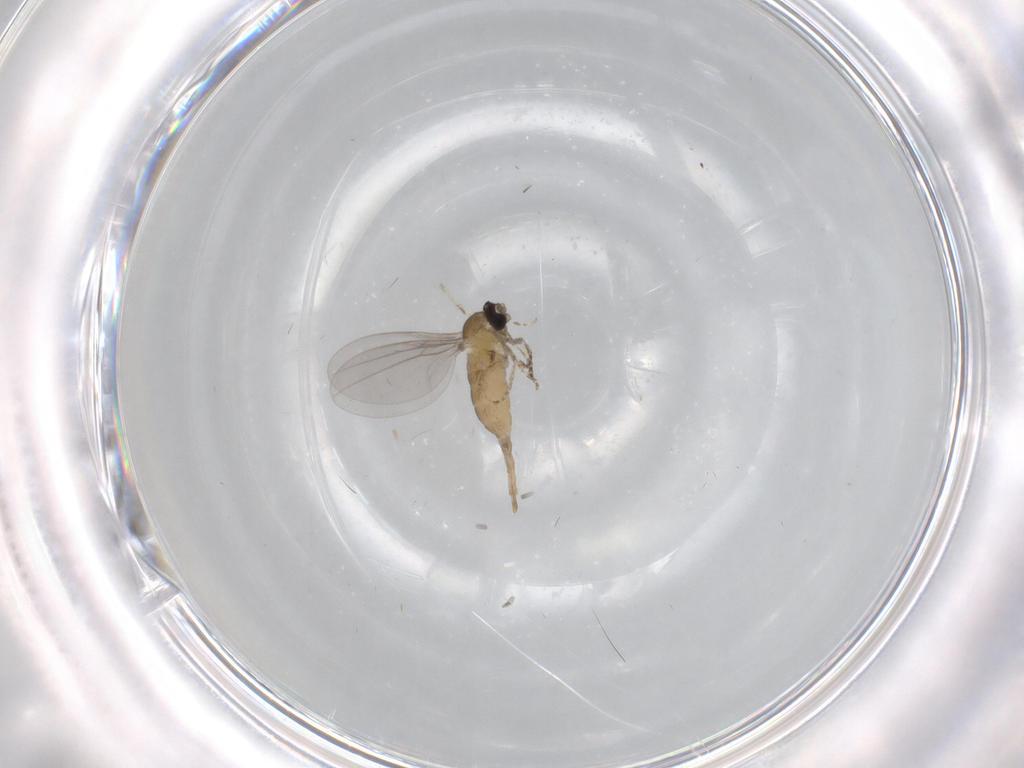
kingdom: Animalia
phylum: Arthropoda
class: Insecta
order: Diptera
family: Cecidomyiidae
